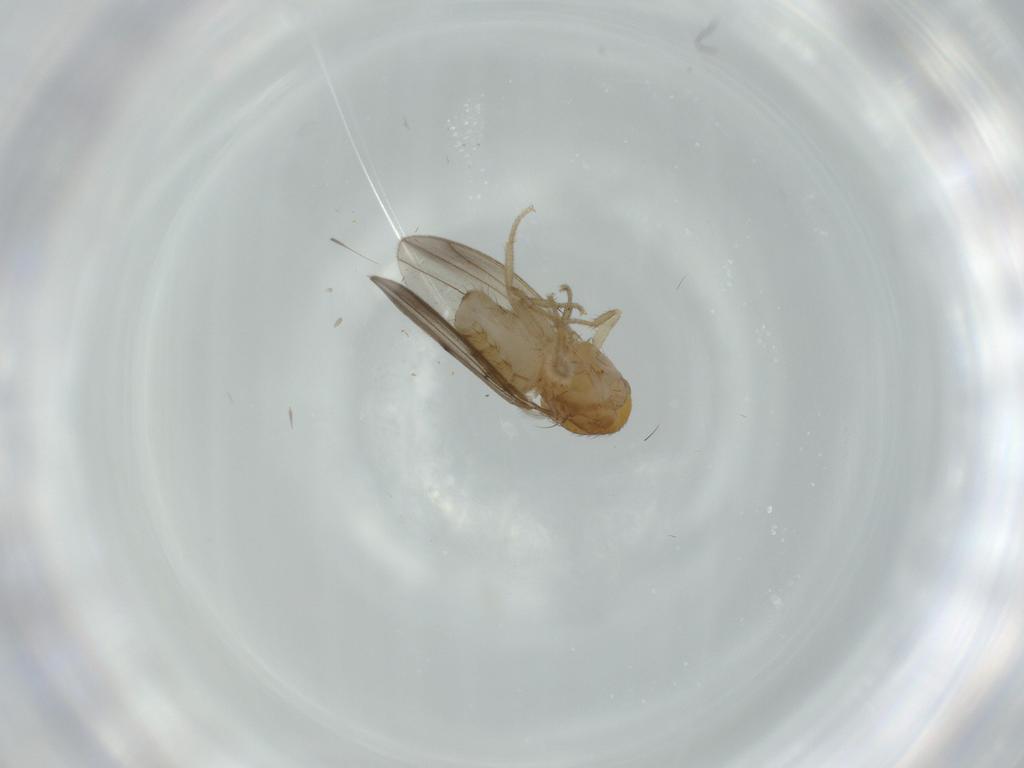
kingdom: Animalia
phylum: Arthropoda
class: Insecta
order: Diptera
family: Drosophilidae
